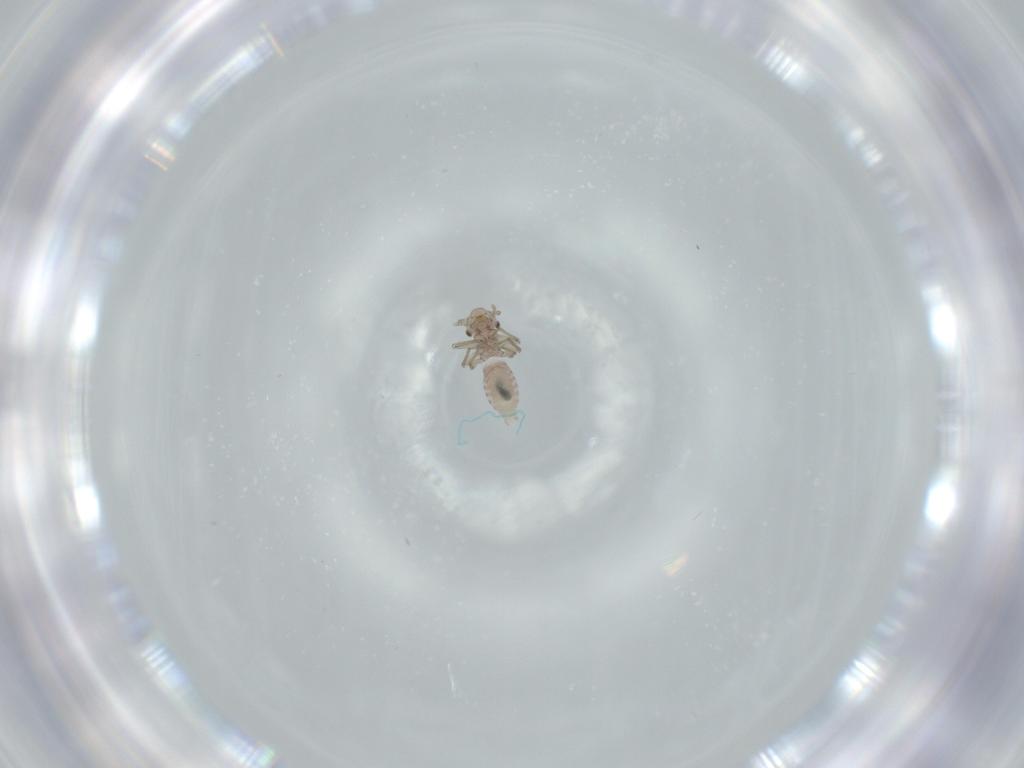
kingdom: Animalia
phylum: Arthropoda
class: Insecta
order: Psocodea
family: Lepidopsocidae
